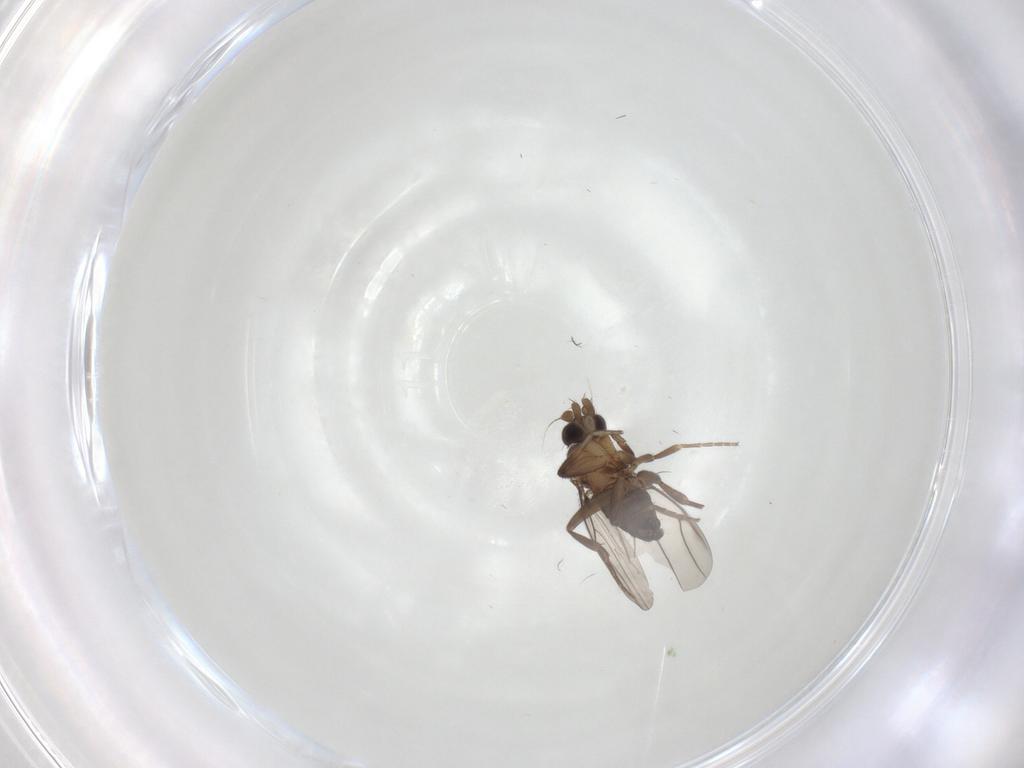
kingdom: Animalia
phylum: Arthropoda
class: Insecta
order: Diptera
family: Phoridae
